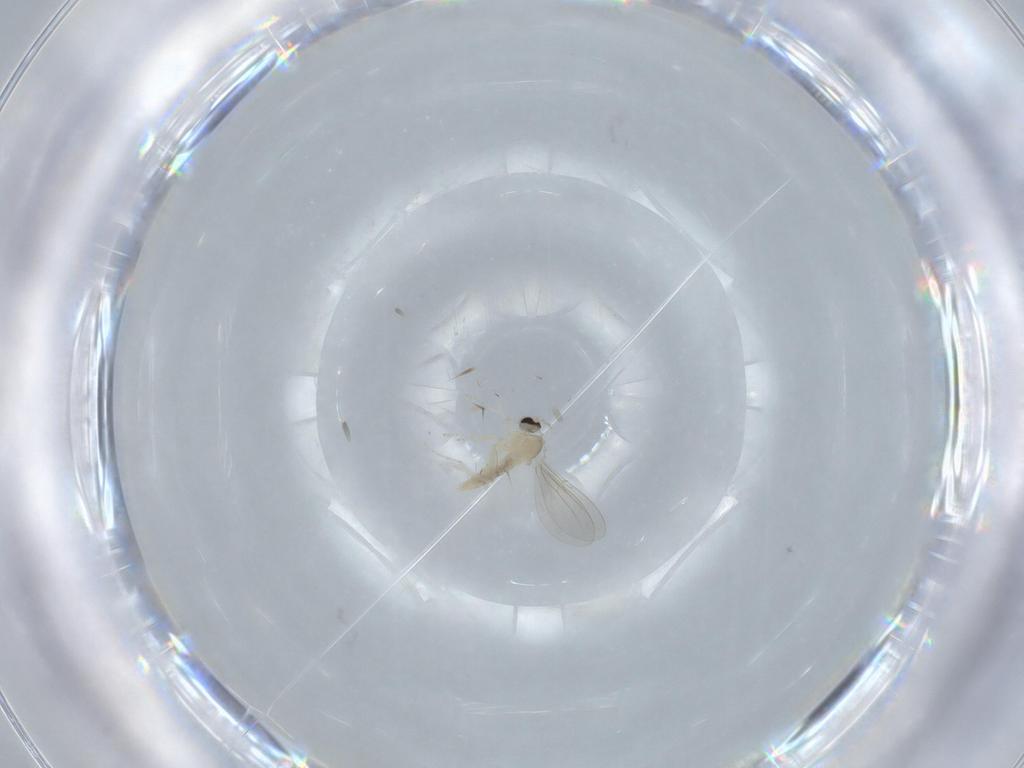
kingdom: Animalia
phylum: Arthropoda
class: Insecta
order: Diptera
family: Cecidomyiidae
